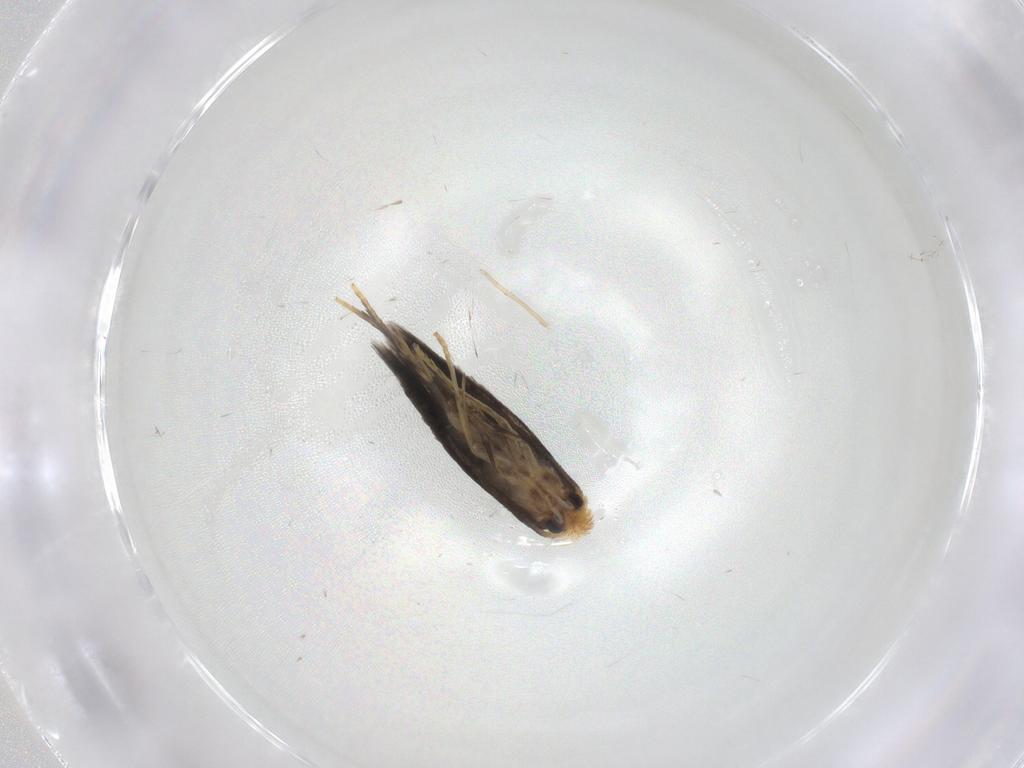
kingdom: Animalia
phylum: Arthropoda
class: Insecta
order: Lepidoptera
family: Nepticulidae
